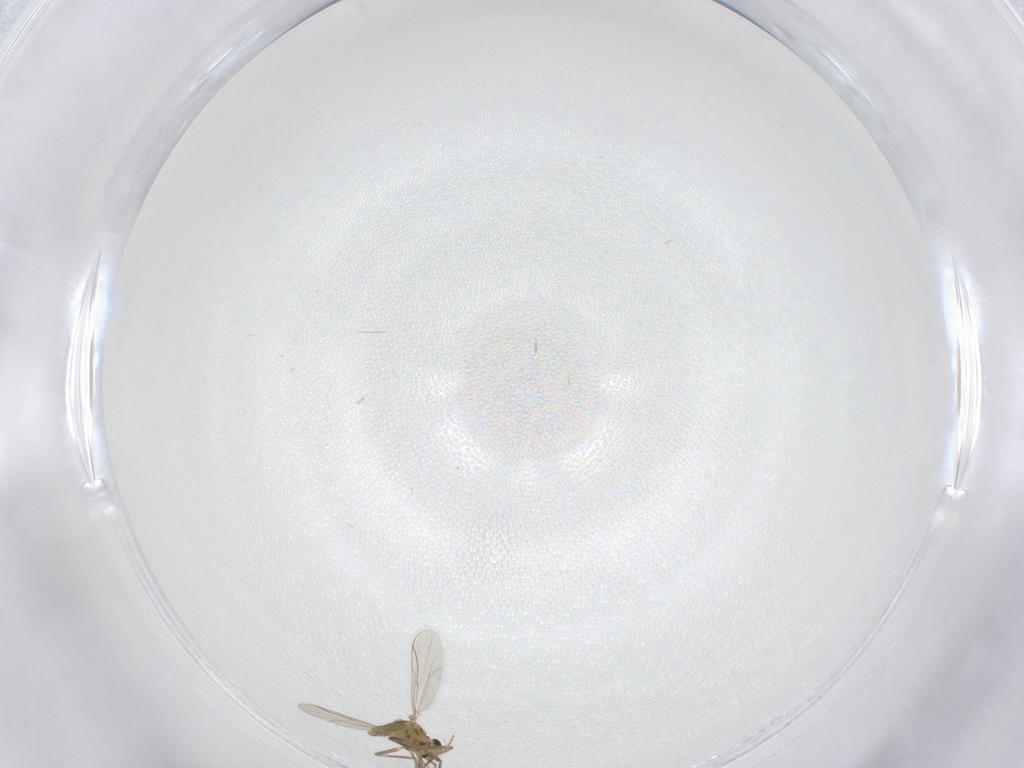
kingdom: Animalia
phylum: Arthropoda
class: Insecta
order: Diptera
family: Chironomidae
